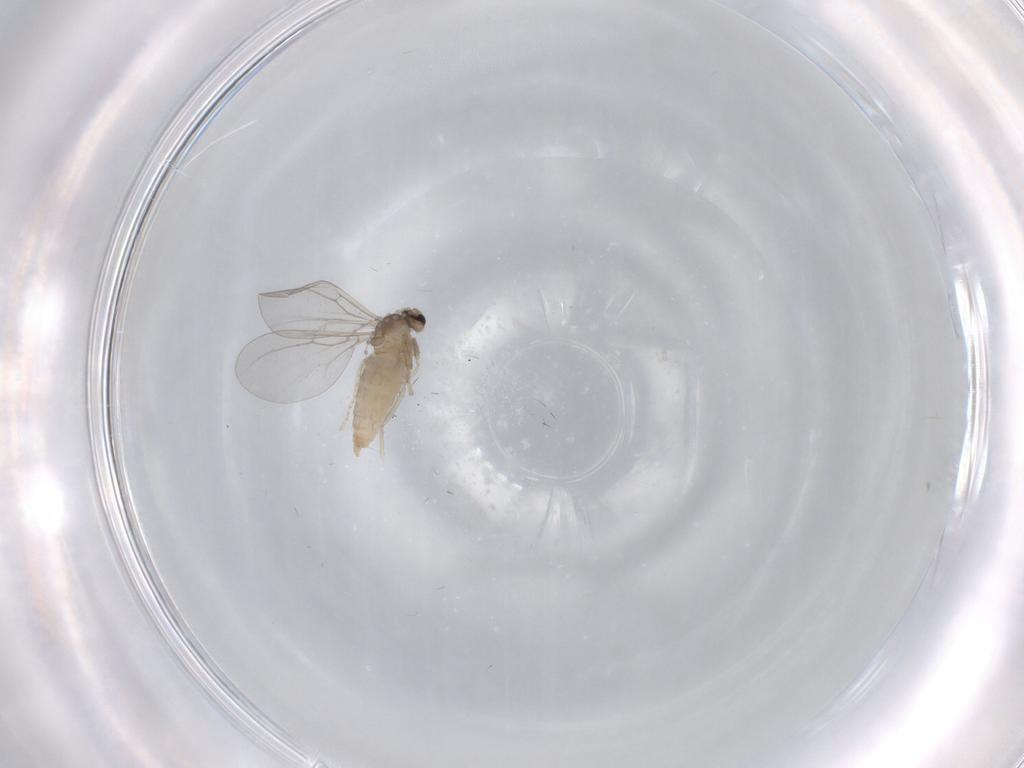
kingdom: Animalia
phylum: Arthropoda
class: Insecta
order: Diptera
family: Cecidomyiidae
